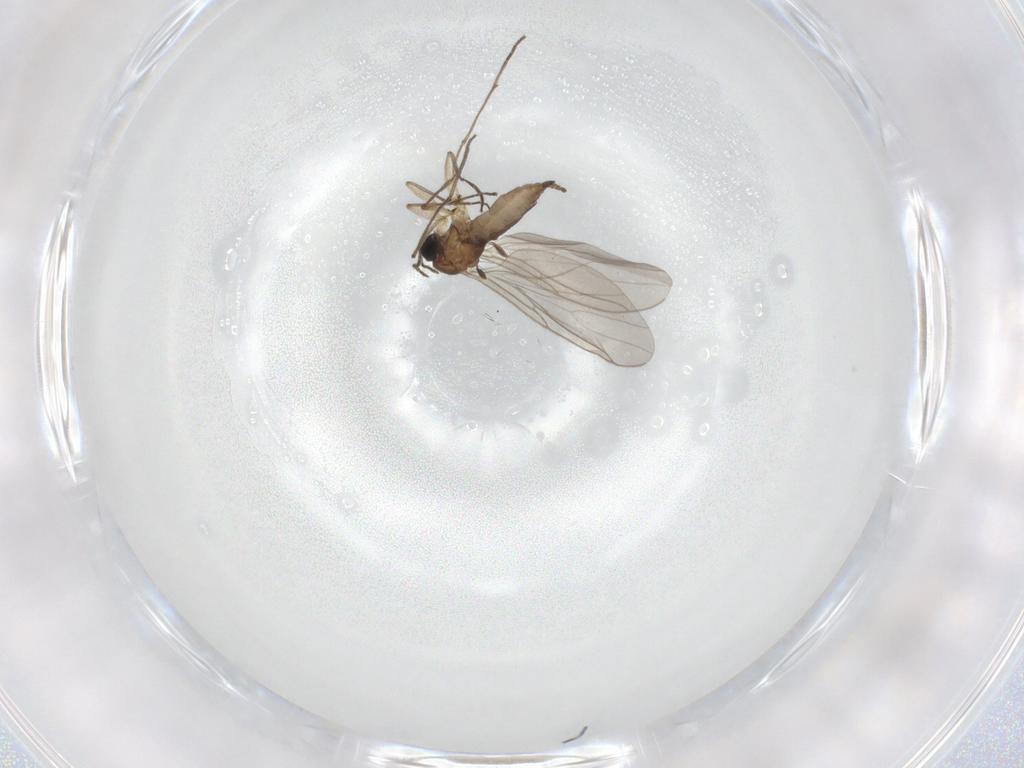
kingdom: Animalia
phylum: Arthropoda
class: Insecta
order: Diptera
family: Sciaridae
